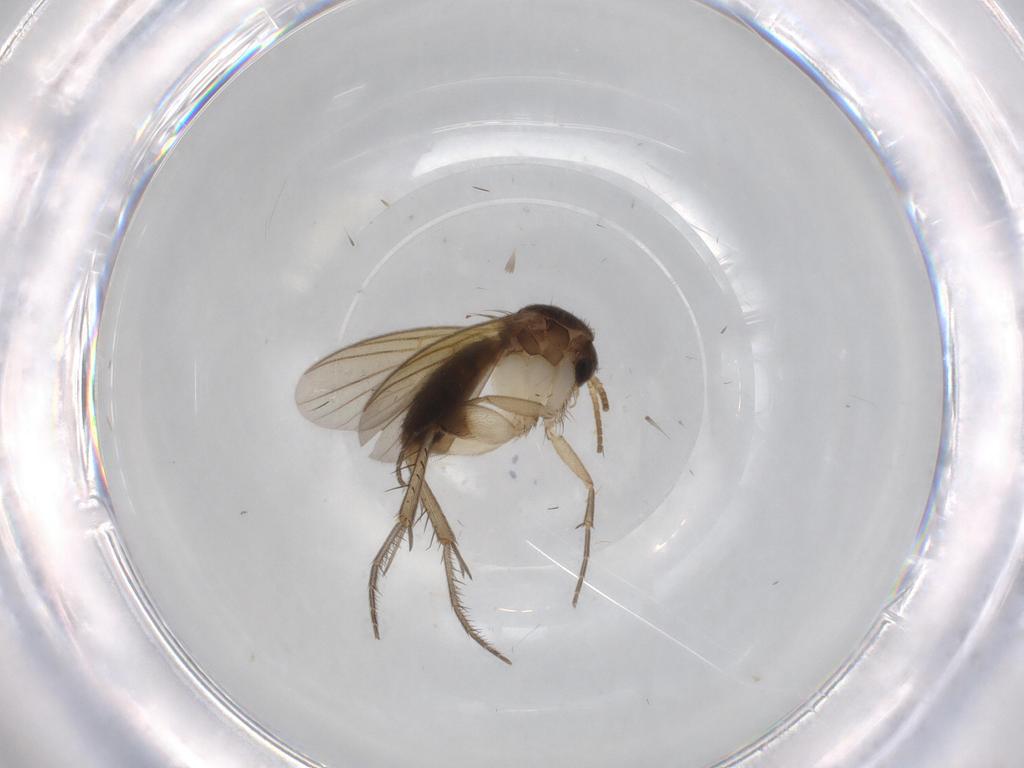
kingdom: Animalia
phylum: Arthropoda
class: Insecta
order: Diptera
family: Mycetophilidae
